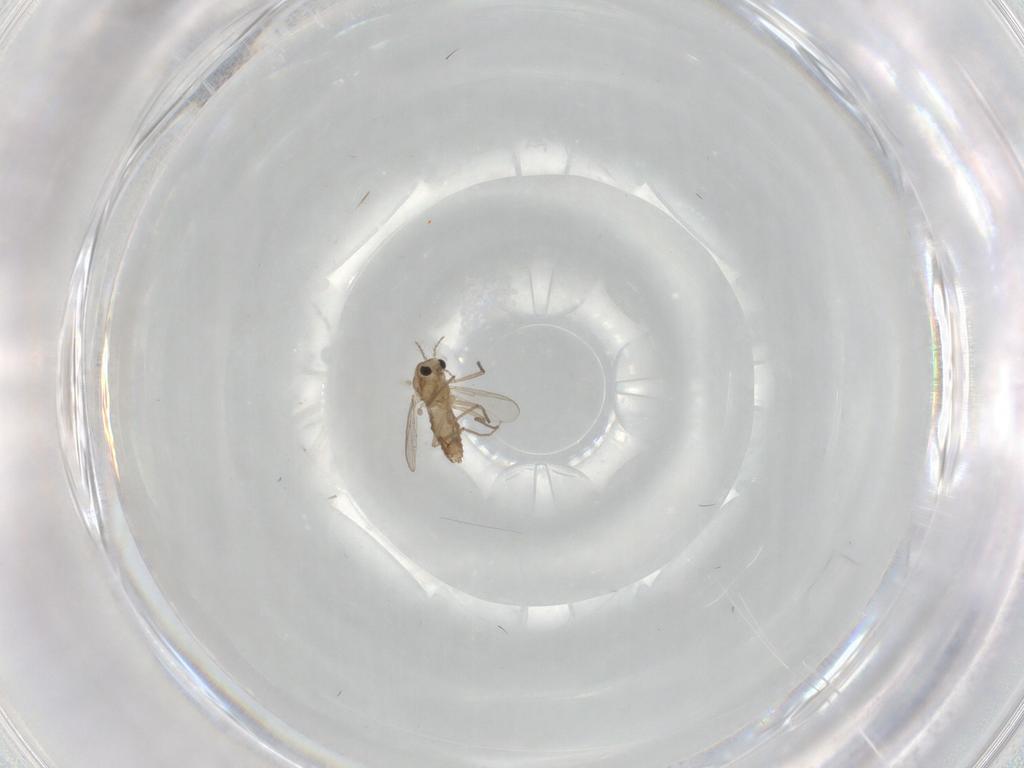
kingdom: Animalia
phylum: Arthropoda
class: Insecta
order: Diptera
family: Chironomidae
